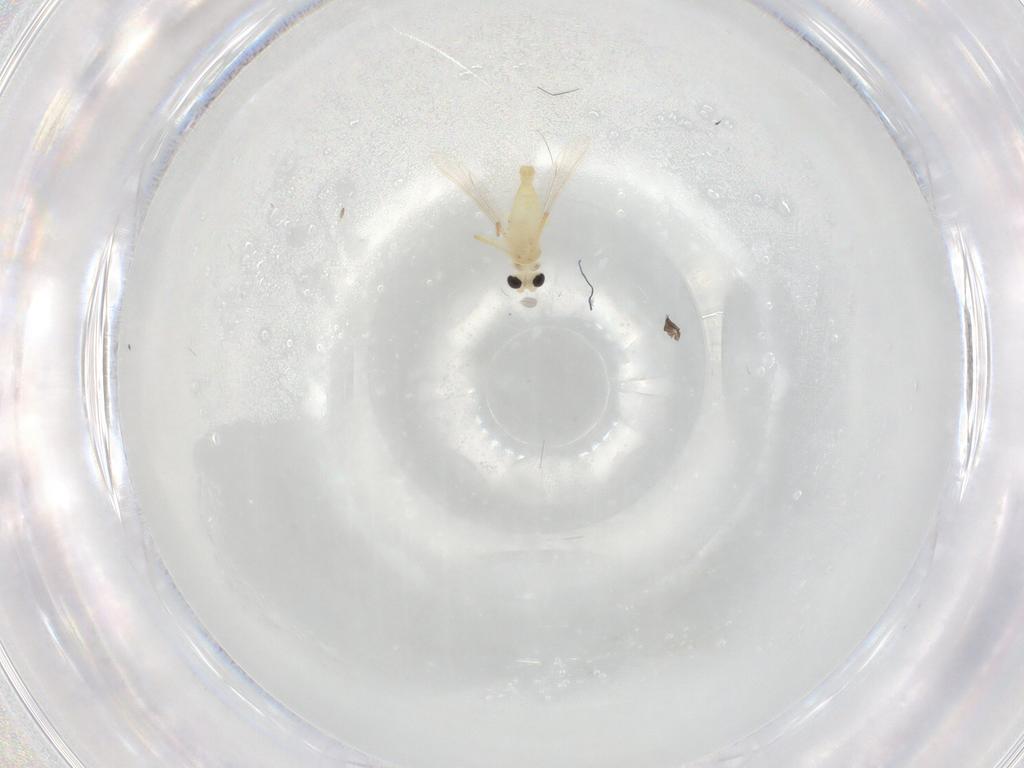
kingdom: Animalia
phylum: Arthropoda
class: Insecta
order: Diptera
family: Chironomidae
